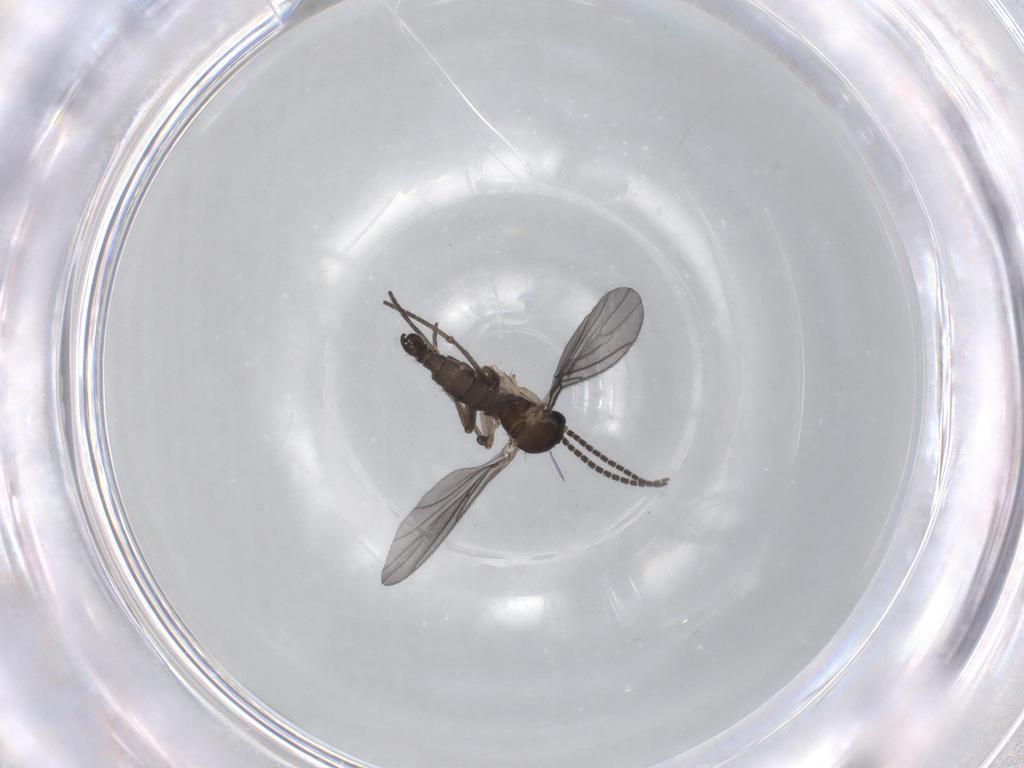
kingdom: Animalia
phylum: Arthropoda
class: Insecta
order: Diptera
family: Sciaridae
